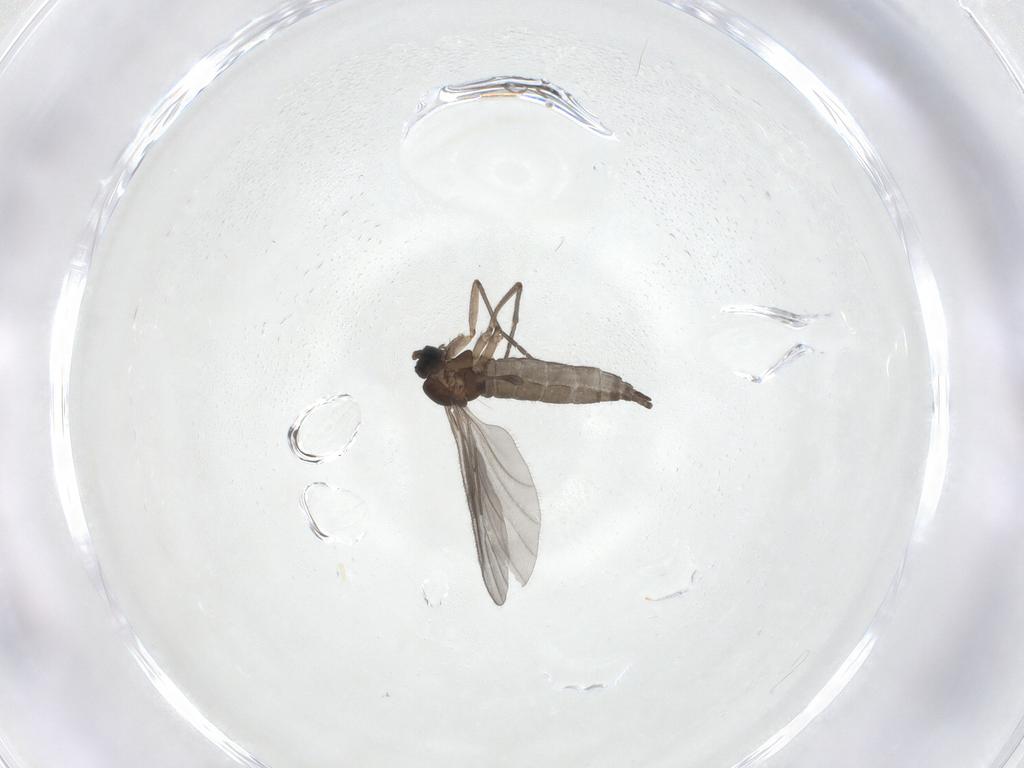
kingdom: Animalia
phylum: Arthropoda
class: Insecta
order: Diptera
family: Sciaridae
